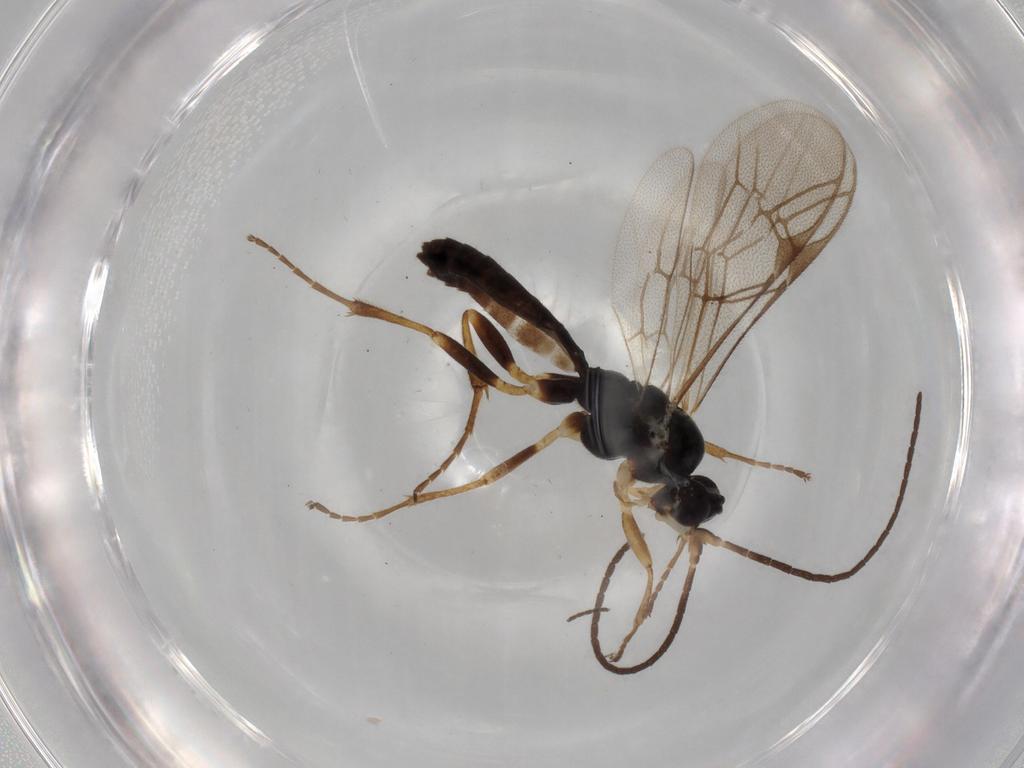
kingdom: Animalia
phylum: Arthropoda
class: Insecta
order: Hymenoptera
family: Ichneumonidae
